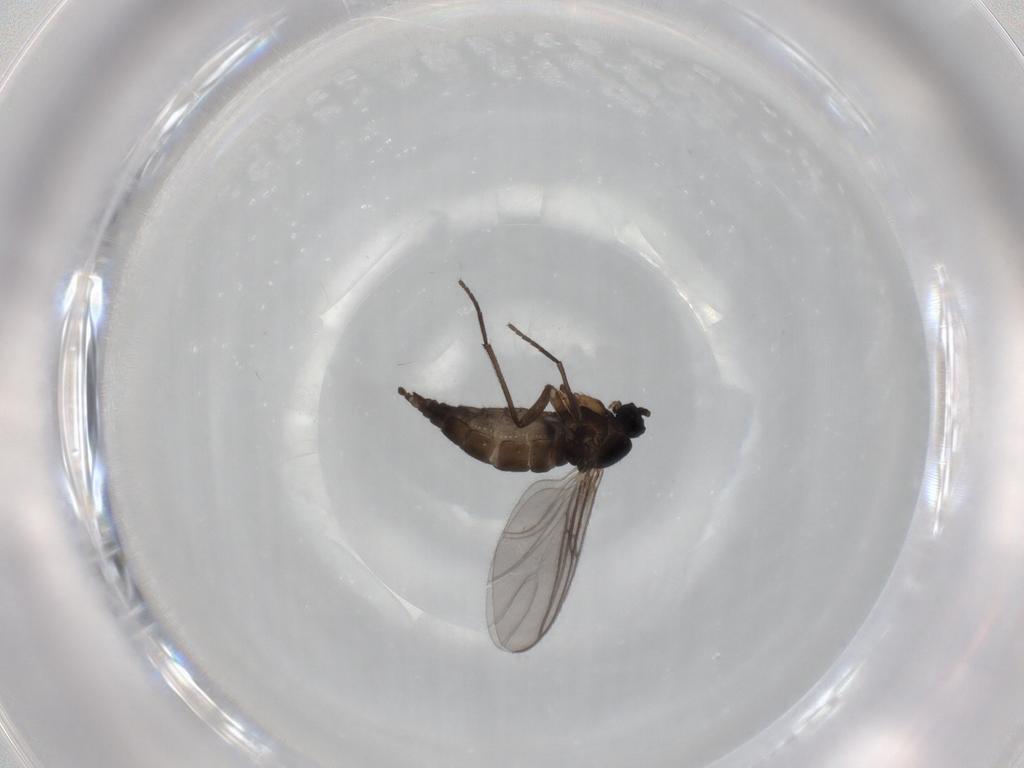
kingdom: Animalia
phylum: Arthropoda
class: Insecta
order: Diptera
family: Sciaridae
